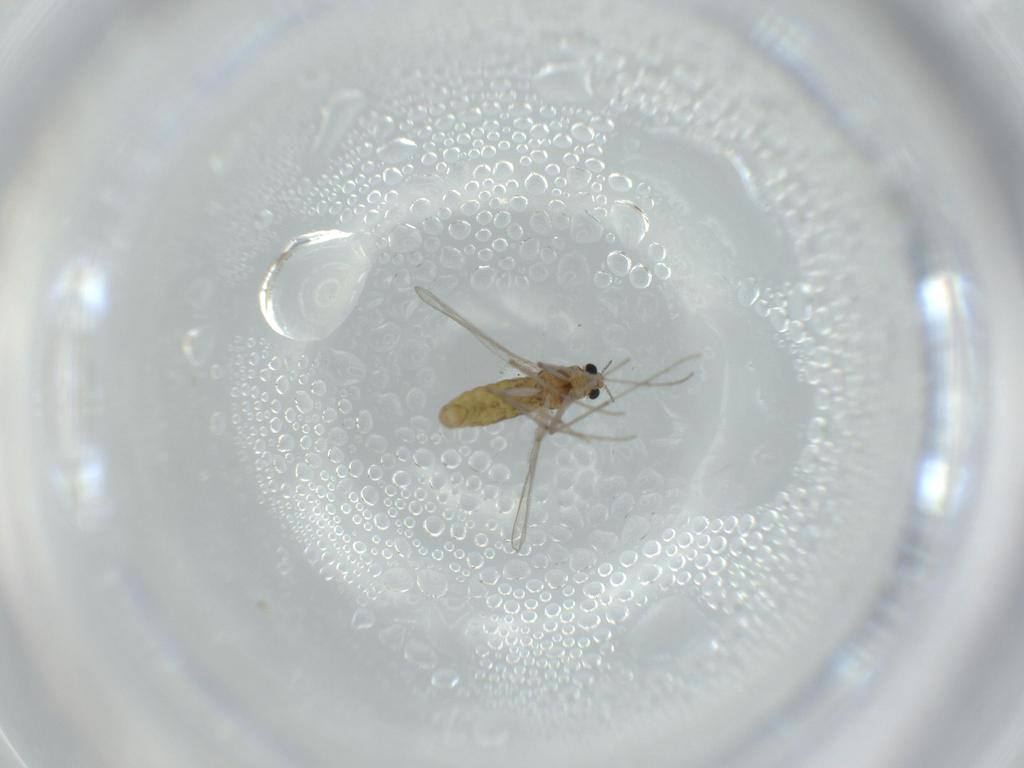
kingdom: Animalia
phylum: Arthropoda
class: Insecta
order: Diptera
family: Chironomidae
